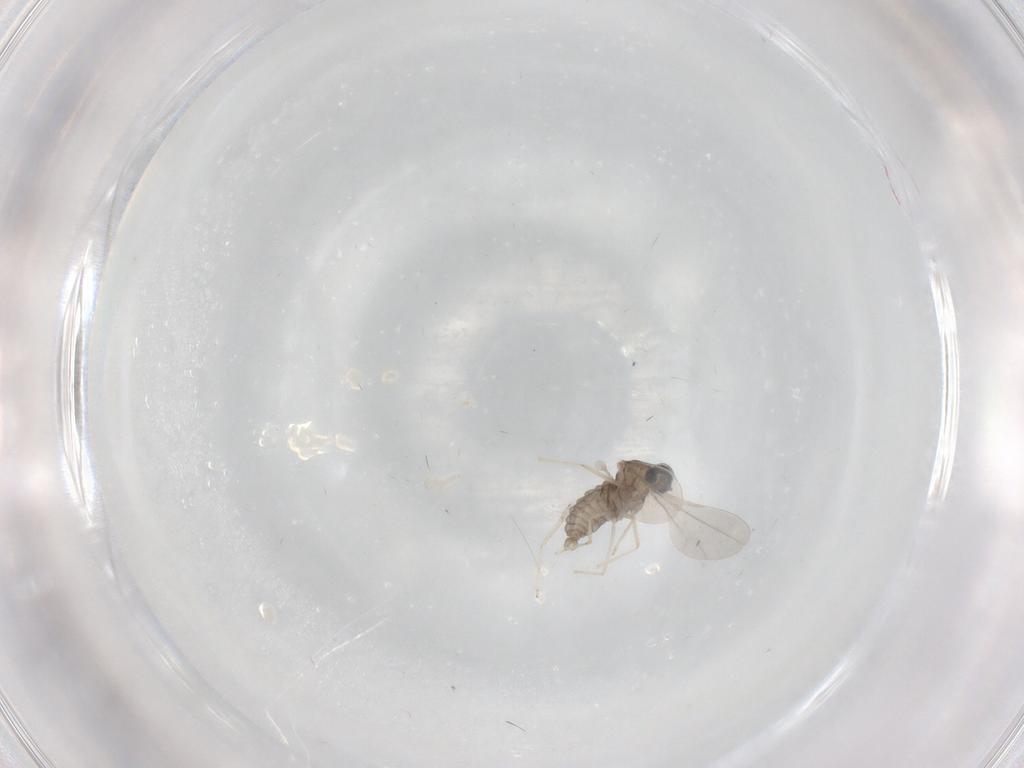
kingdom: Animalia
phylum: Arthropoda
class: Insecta
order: Diptera
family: Cecidomyiidae
